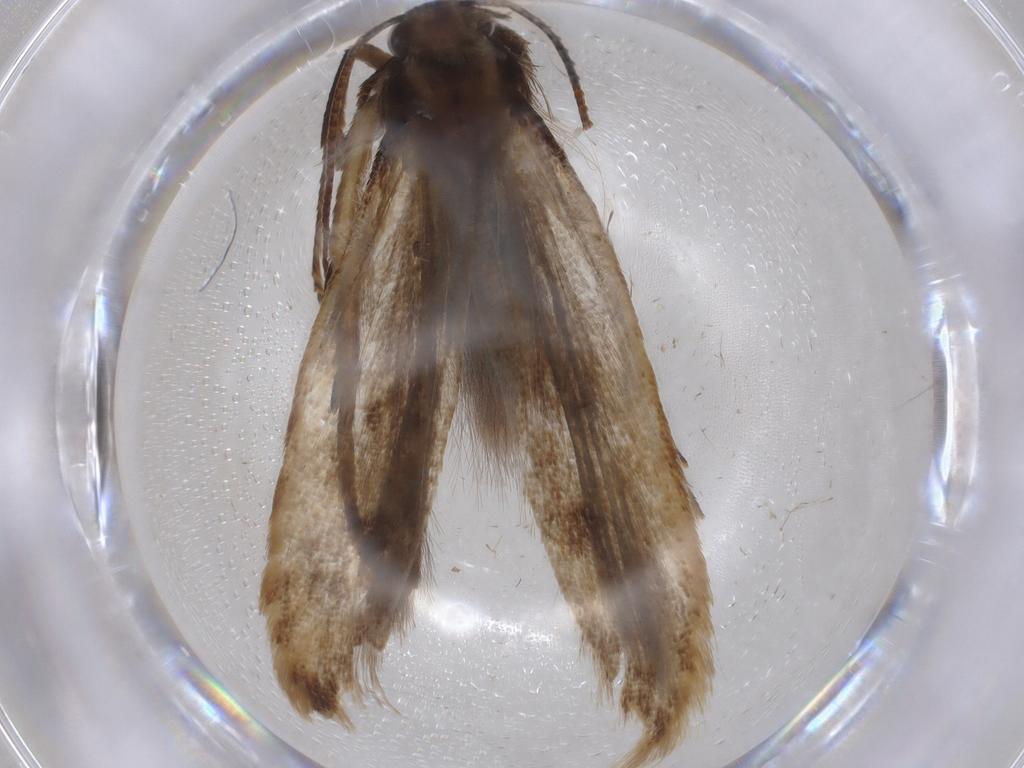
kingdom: Animalia
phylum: Arthropoda
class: Insecta
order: Lepidoptera
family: Gelechiidae
